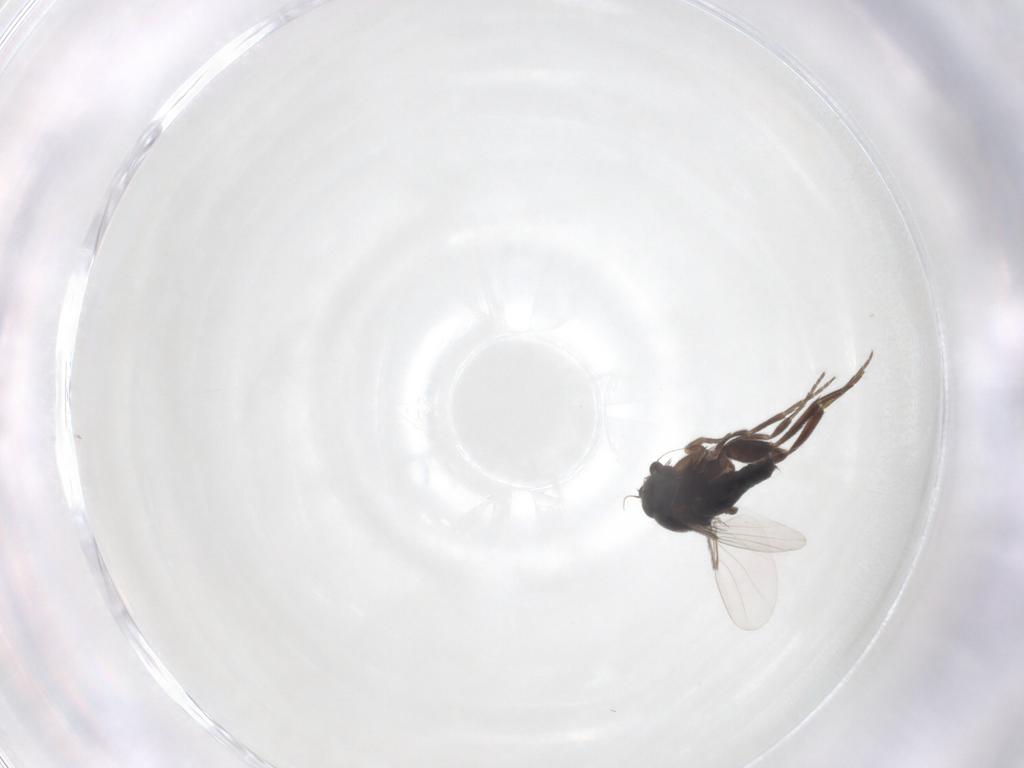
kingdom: Animalia
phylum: Arthropoda
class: Insecta
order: Diptera
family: Phoridae
